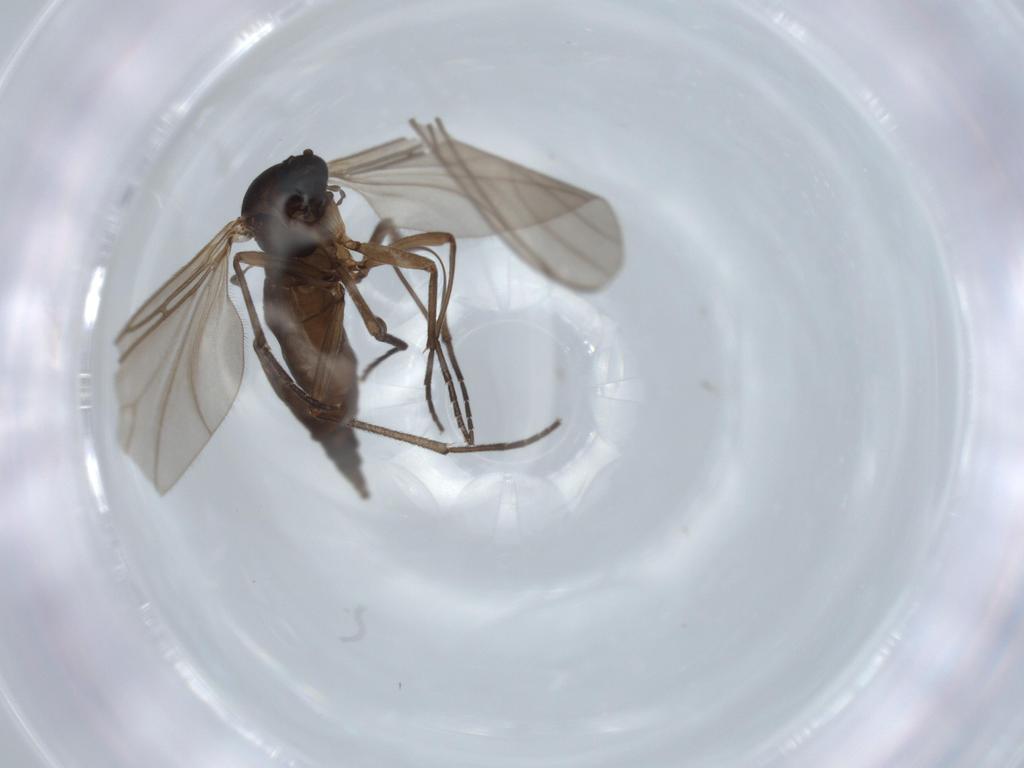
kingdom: Animalia
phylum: Arthropoda
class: Insecta
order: Diptera
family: Sciaridae
